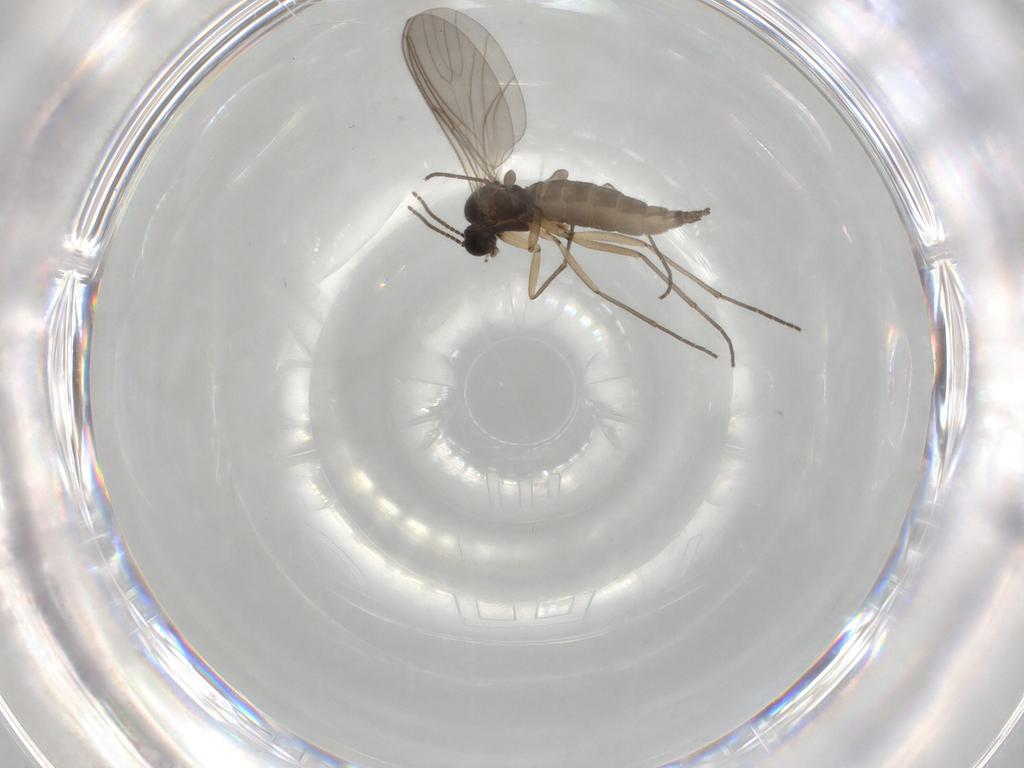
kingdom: Animalia
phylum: Arthropoda
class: Insecta
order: Diptera
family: Sciaridae
